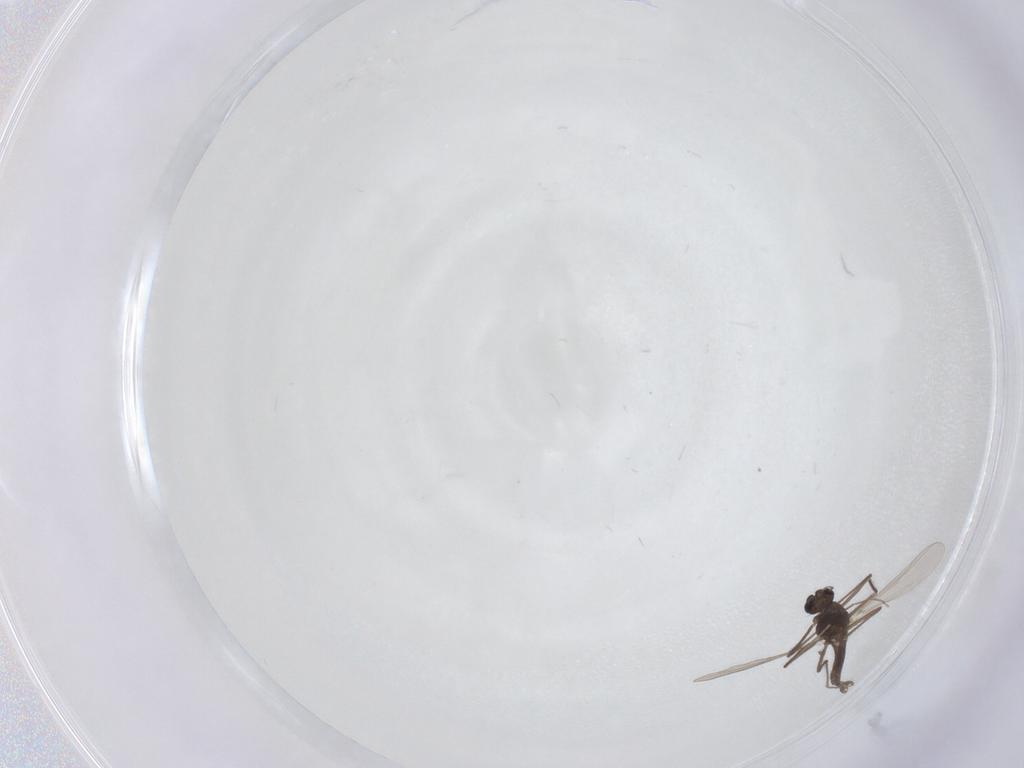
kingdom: Animalia
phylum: Arthropoda
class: Insecta
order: Diptera
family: Chironomidae
